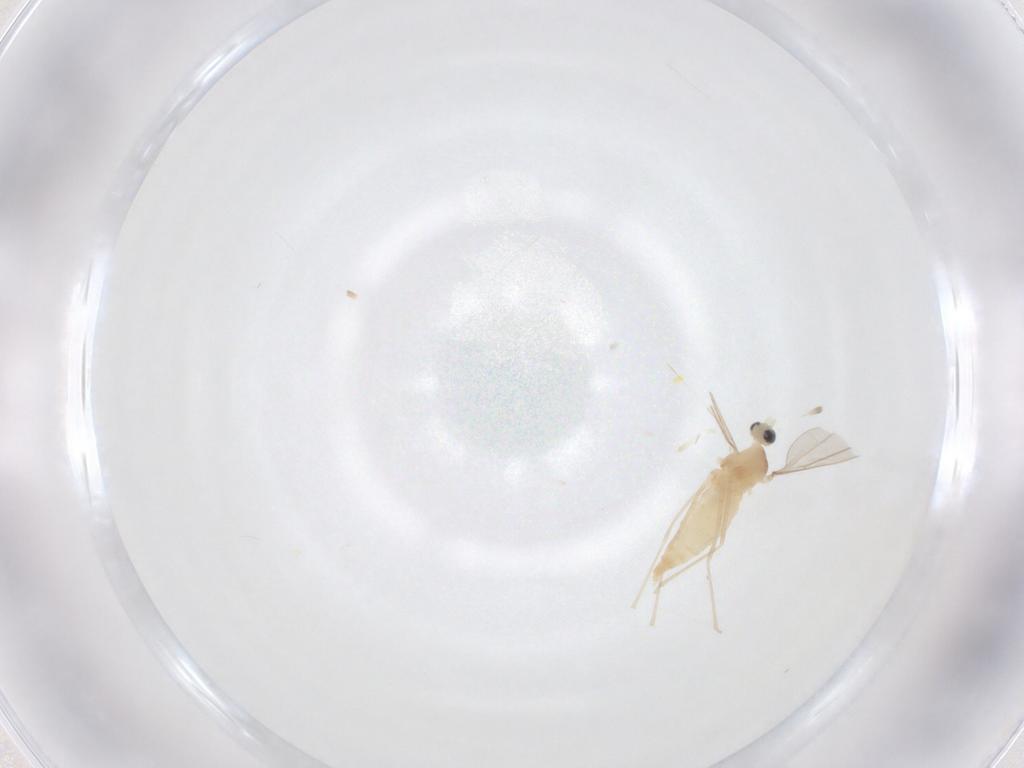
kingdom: Animalia
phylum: Arthropoda
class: Insecta
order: Diptera
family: Cecidomyiidae
